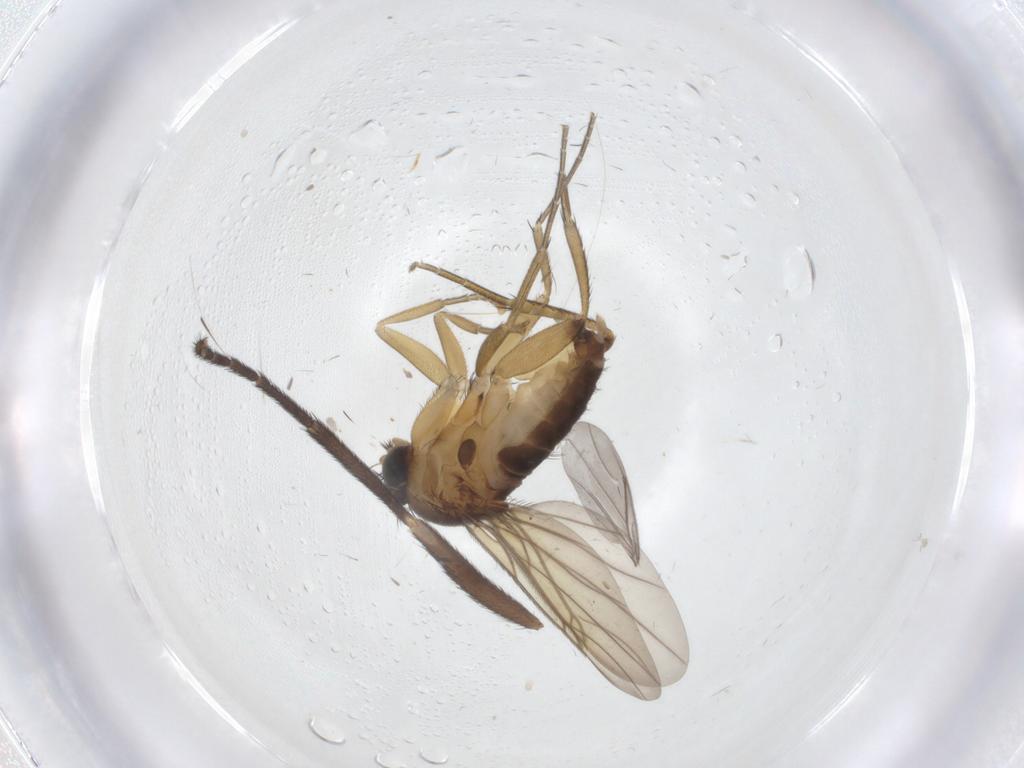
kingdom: Animalia
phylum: Arthropoda
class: Insecta
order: Diptera
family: Phoridae
